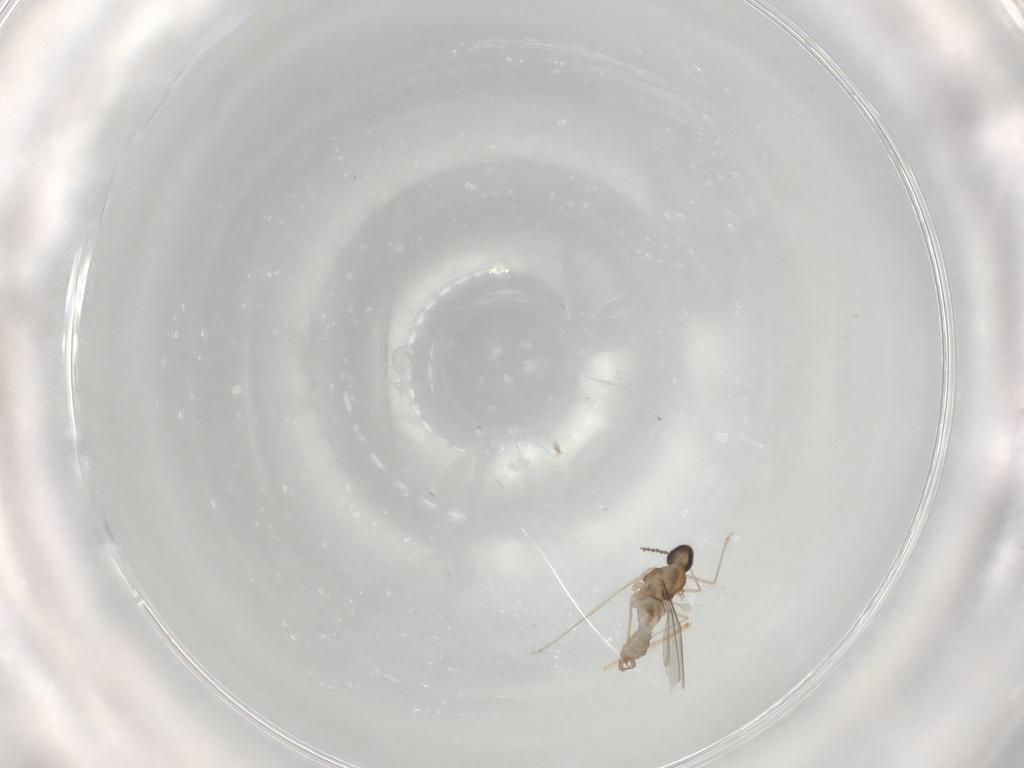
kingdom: Animalia
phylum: Arthropoda
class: Insecta
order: Diptera
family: Cecidomyiidae
